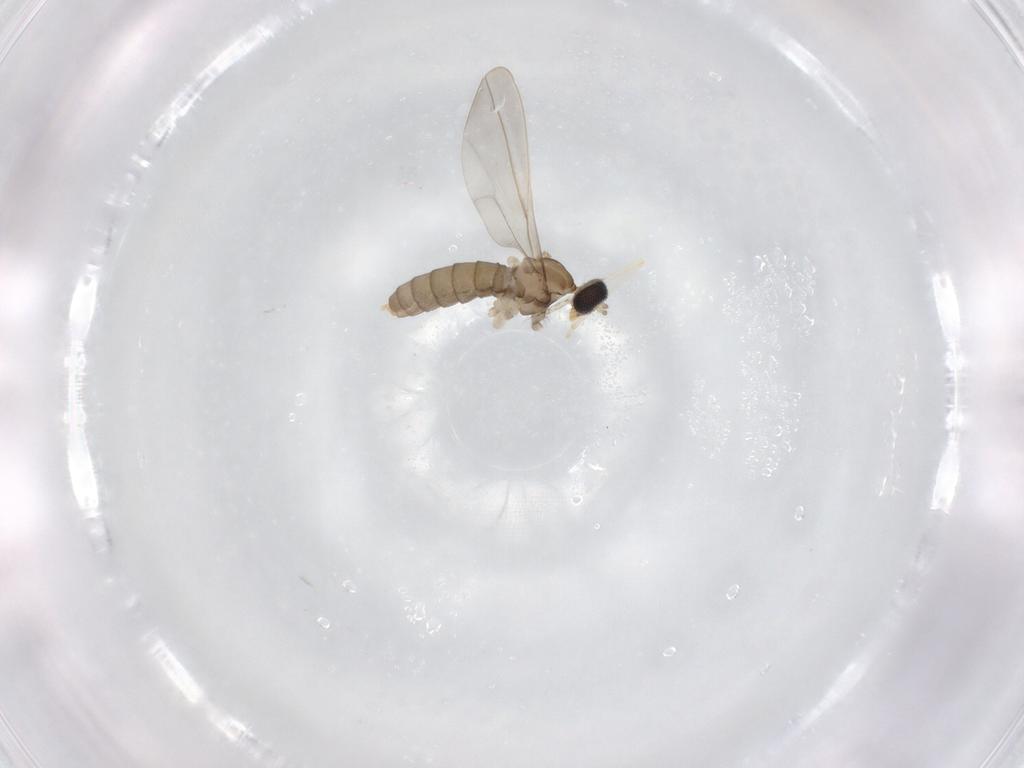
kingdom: Animalia
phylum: Arthropoda
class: Insecta
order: Diptera
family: Cecidomyiidae
